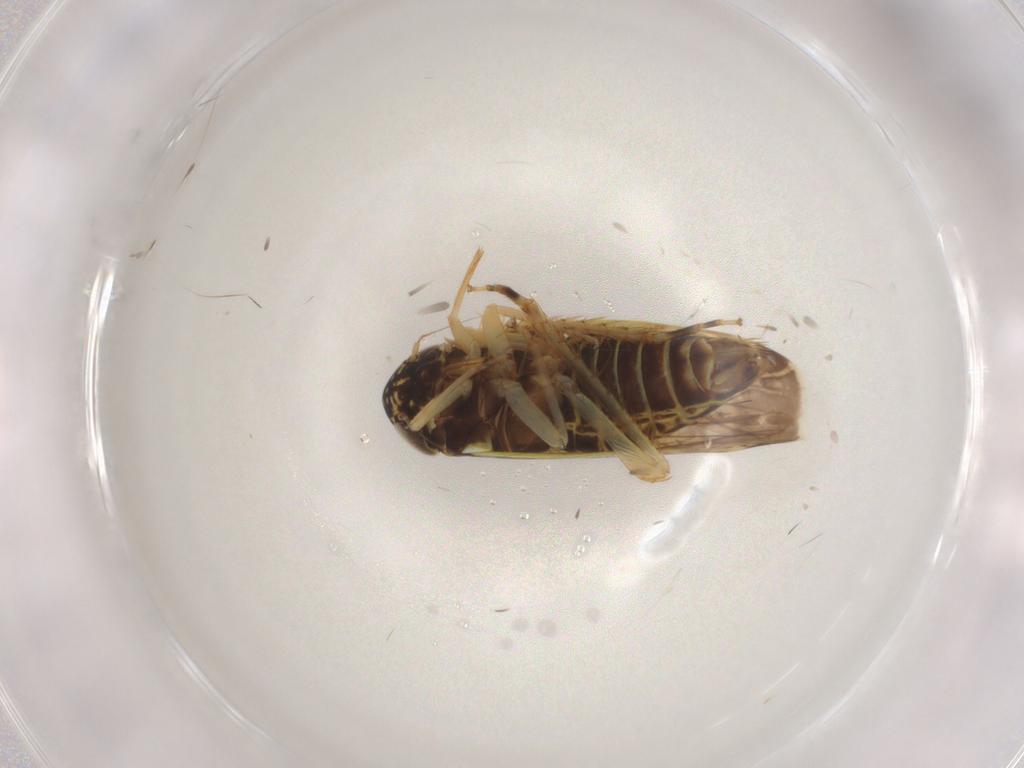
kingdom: Animalia
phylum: Arthropoda
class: Insecta
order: Hemiptera
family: Cicadellidae
